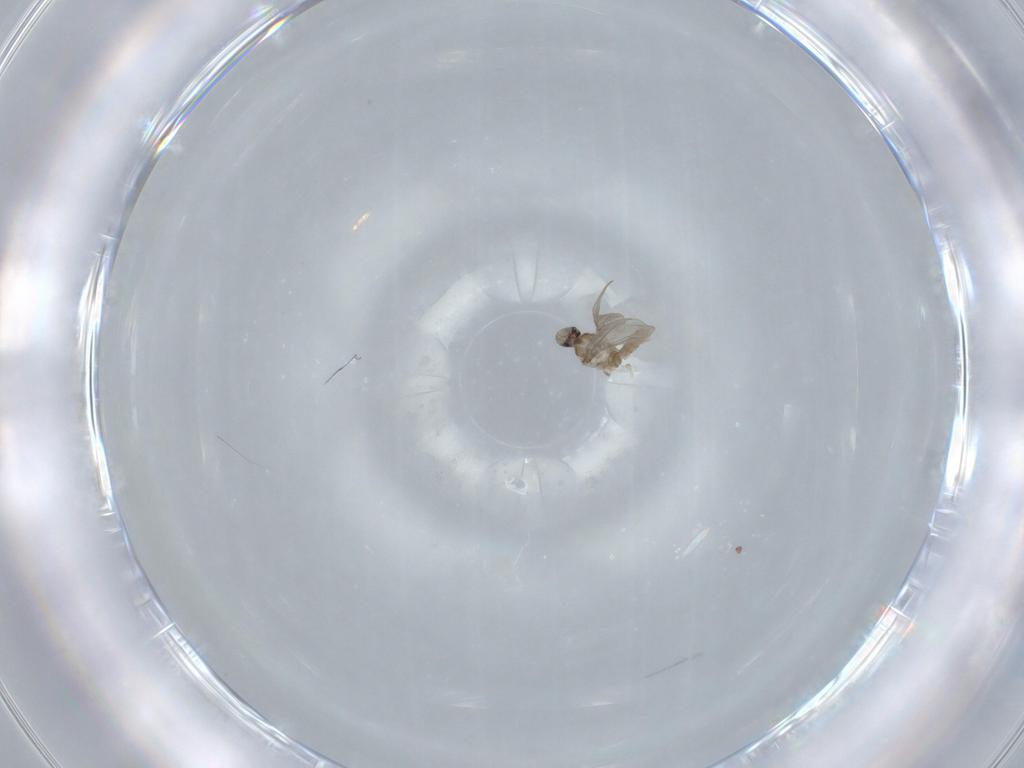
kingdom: Animalia
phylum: Arthropoda
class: Insecta
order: Diptera
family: Cecidomyiidae
